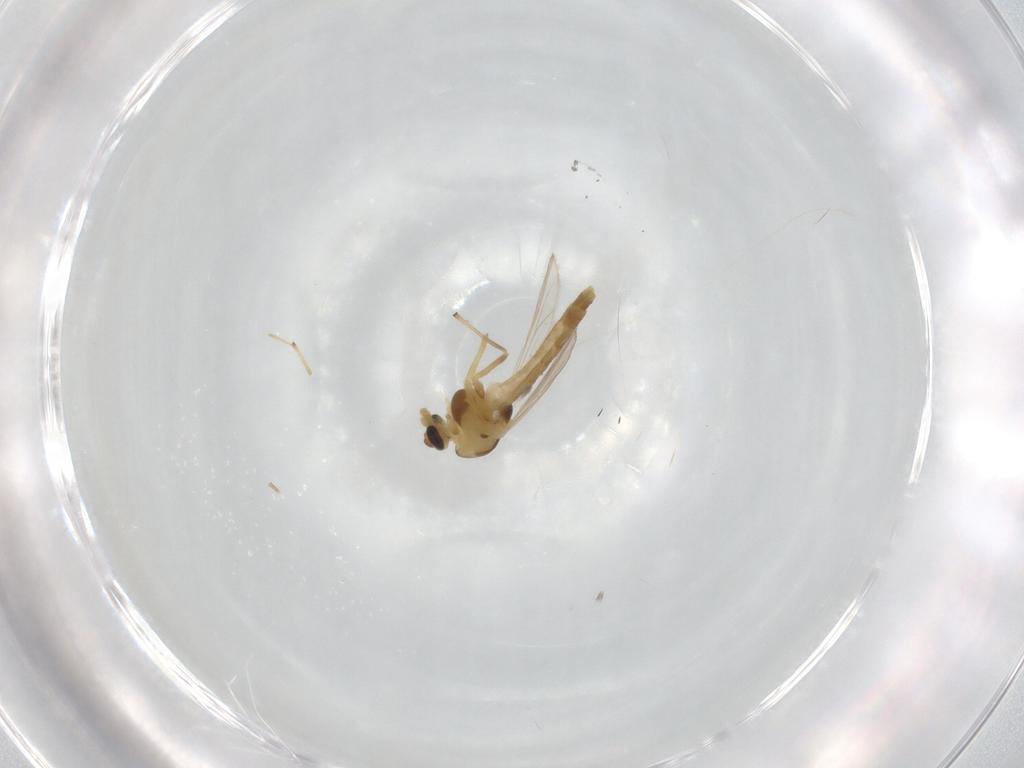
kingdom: Animalia
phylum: Arthropoda
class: Insecta
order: Diptera
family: Chironomidae
